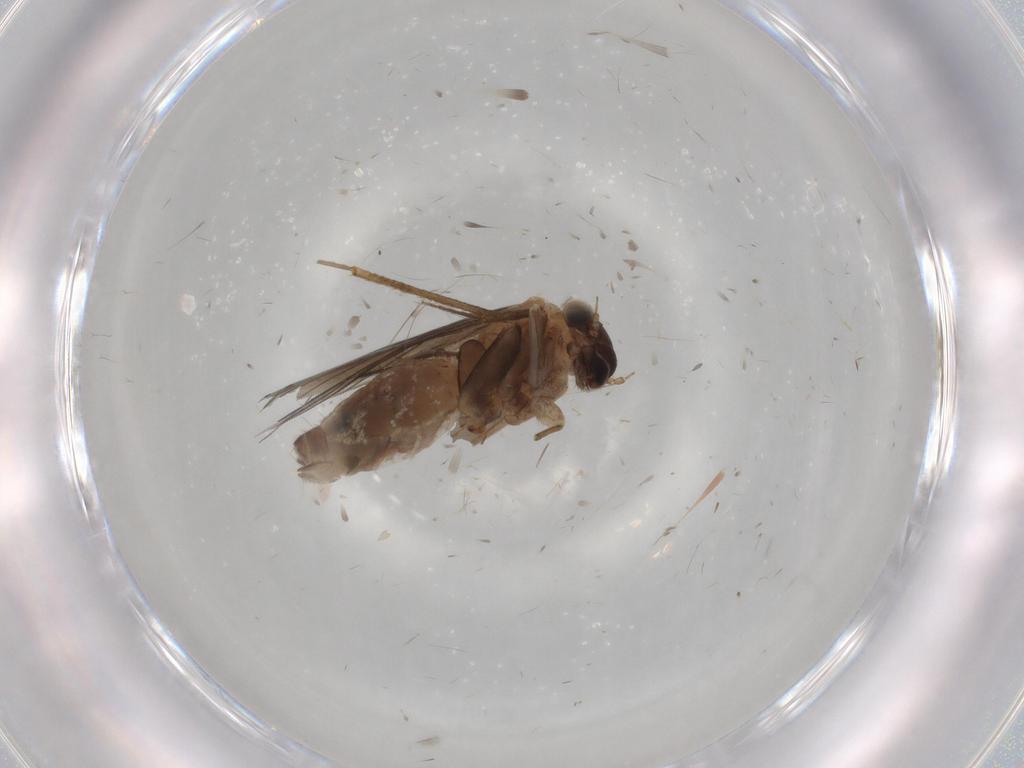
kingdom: Animalia
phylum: Arthropoda
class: Insecta
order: Psocodea
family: Lepidopsocidae
